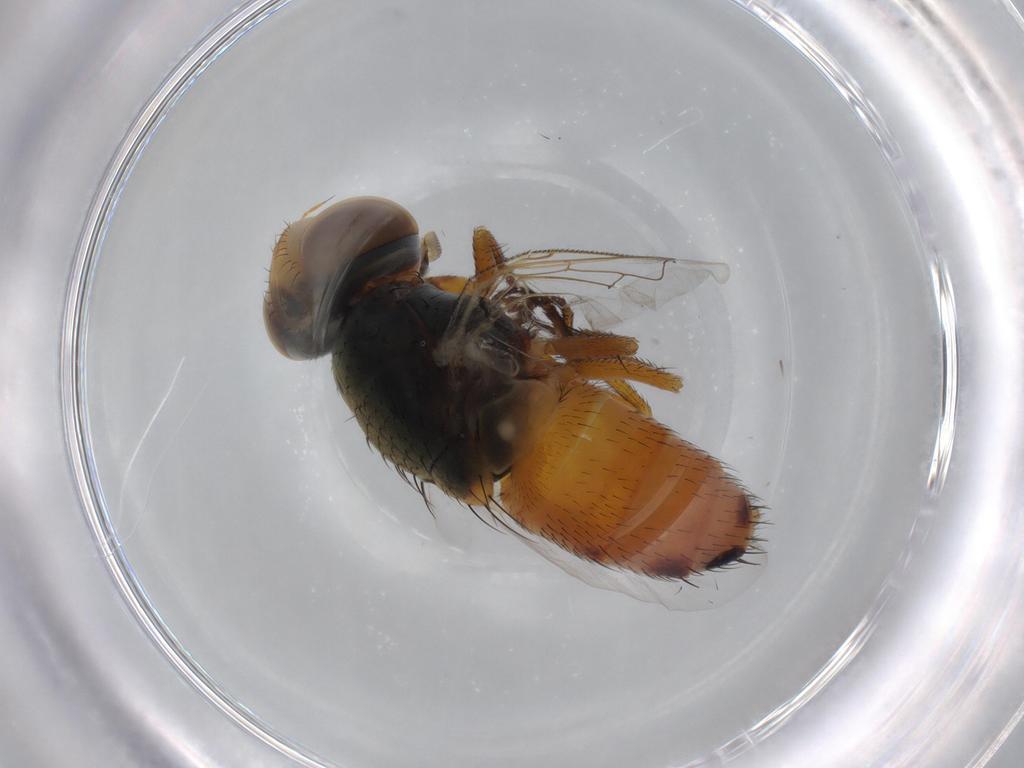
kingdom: Animalia
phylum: Arthropoda
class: Insecta
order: Diptera
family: Sarcophagidae
